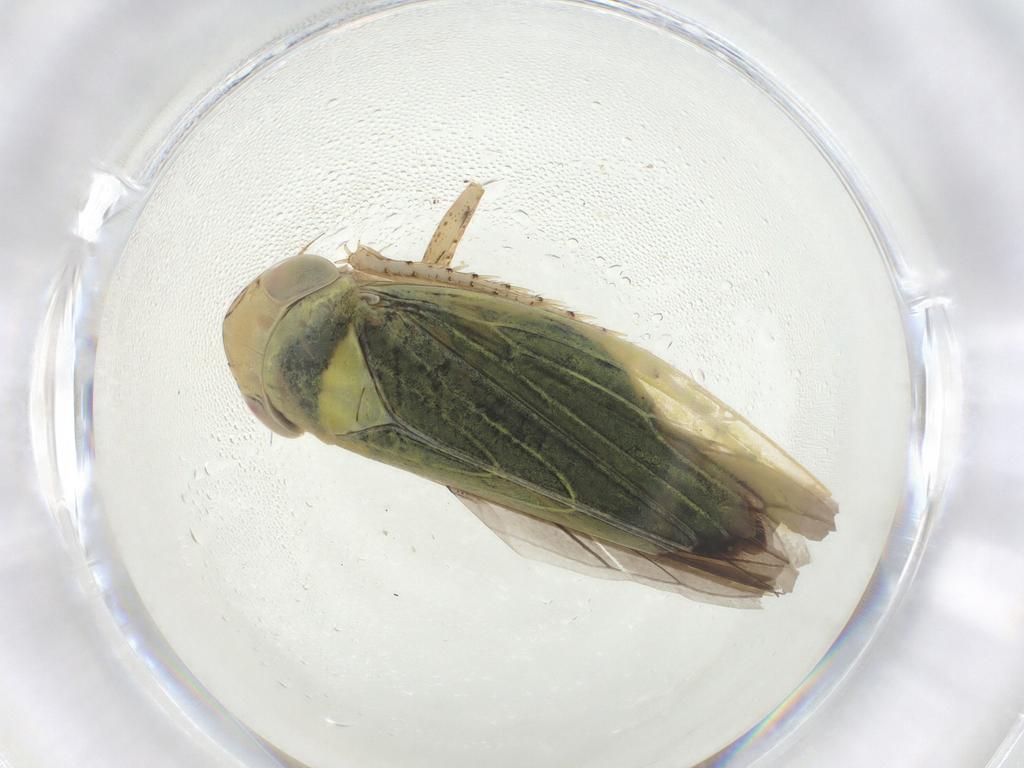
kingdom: Animalia
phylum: Arthropoda
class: Insecta
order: Hemiptera
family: Cicadellidae
